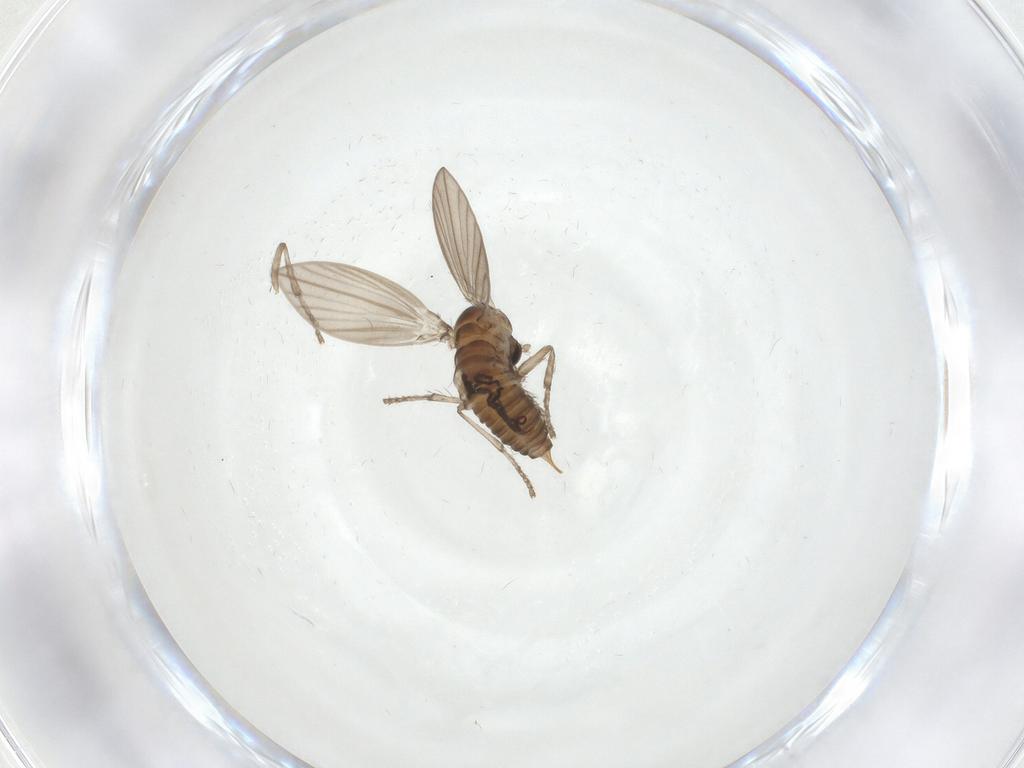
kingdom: Animalia
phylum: Arthropoda
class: Insecta
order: Diptera
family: Psychodidae
